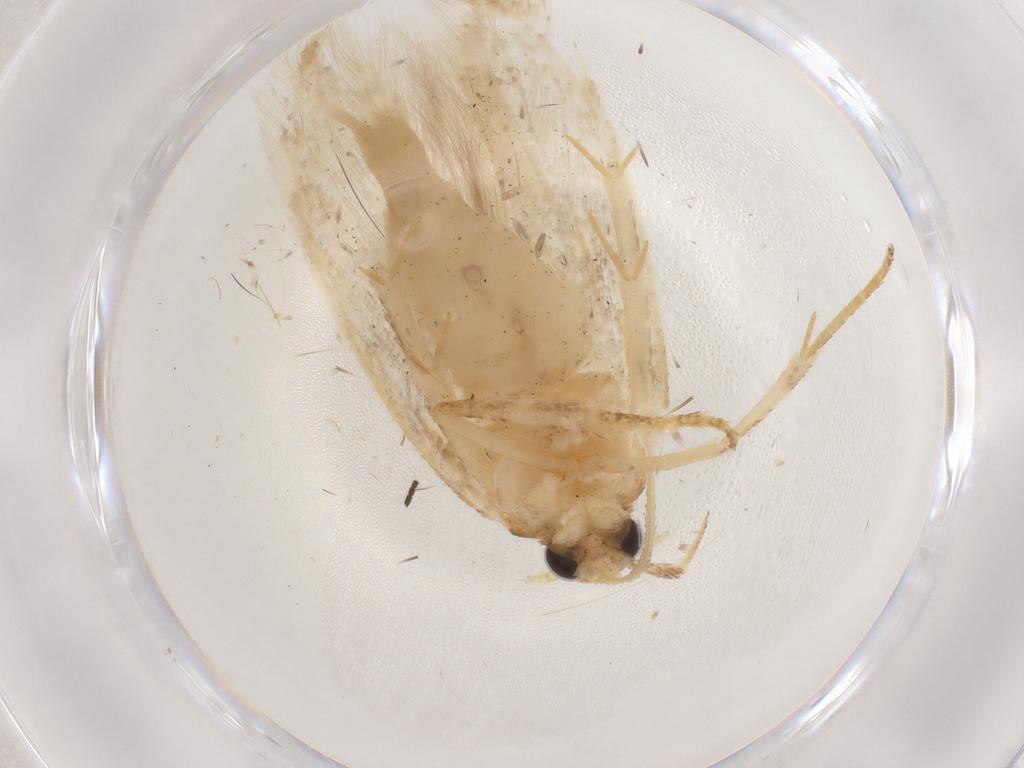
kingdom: Animalia
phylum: Arthropoda
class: Insecta
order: Lepidoptera
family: Gelechiidae
